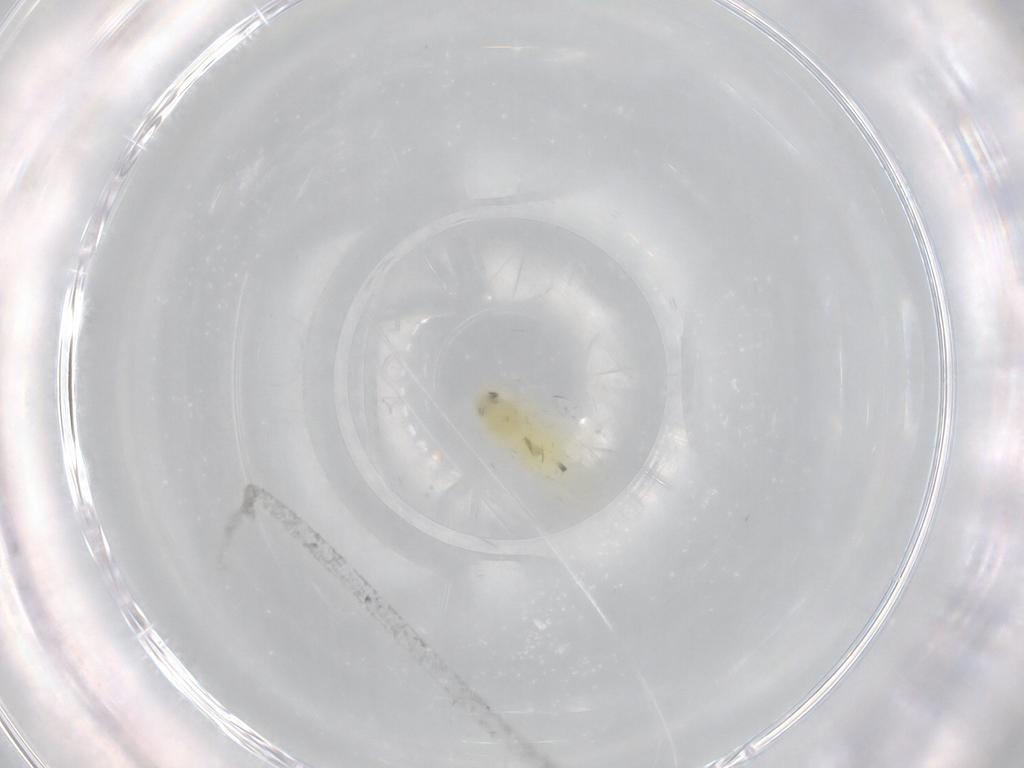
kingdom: Animalia
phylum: Arthropoda
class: Insecta
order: Hemiptera
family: Aleyrodidae
